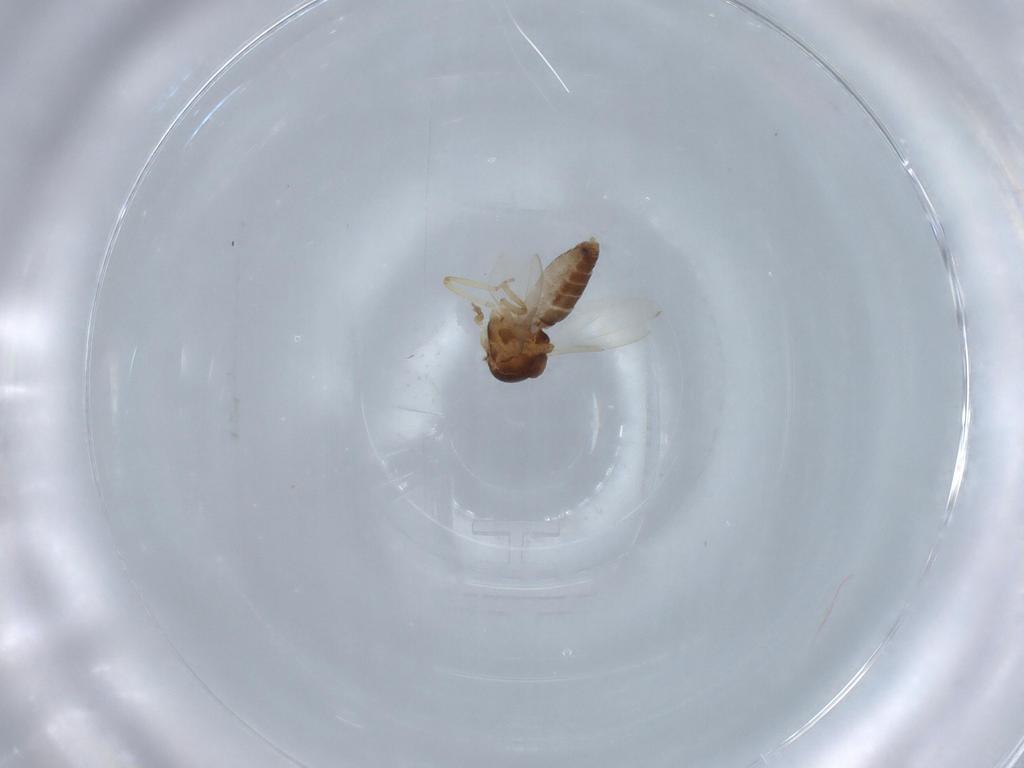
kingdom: Animalia
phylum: Arthropoda
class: Insecta
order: Diptera
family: Ceratopogonidae
